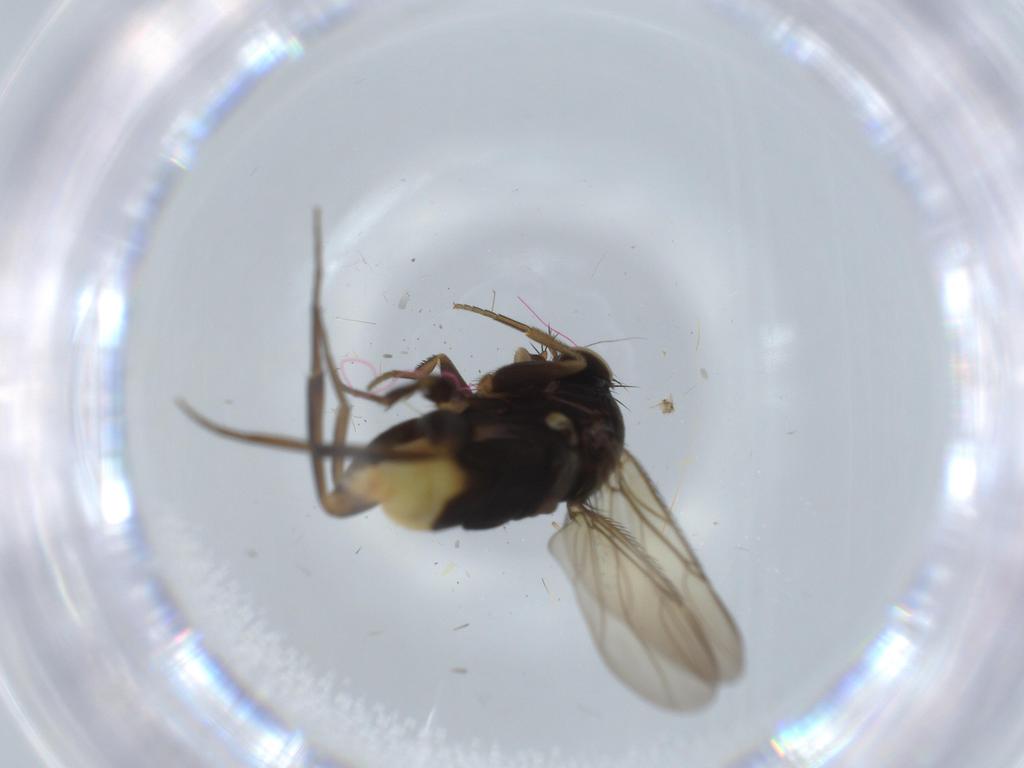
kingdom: Animalia
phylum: Arthropoda
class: Insecta
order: Diptera
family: Phoridae
